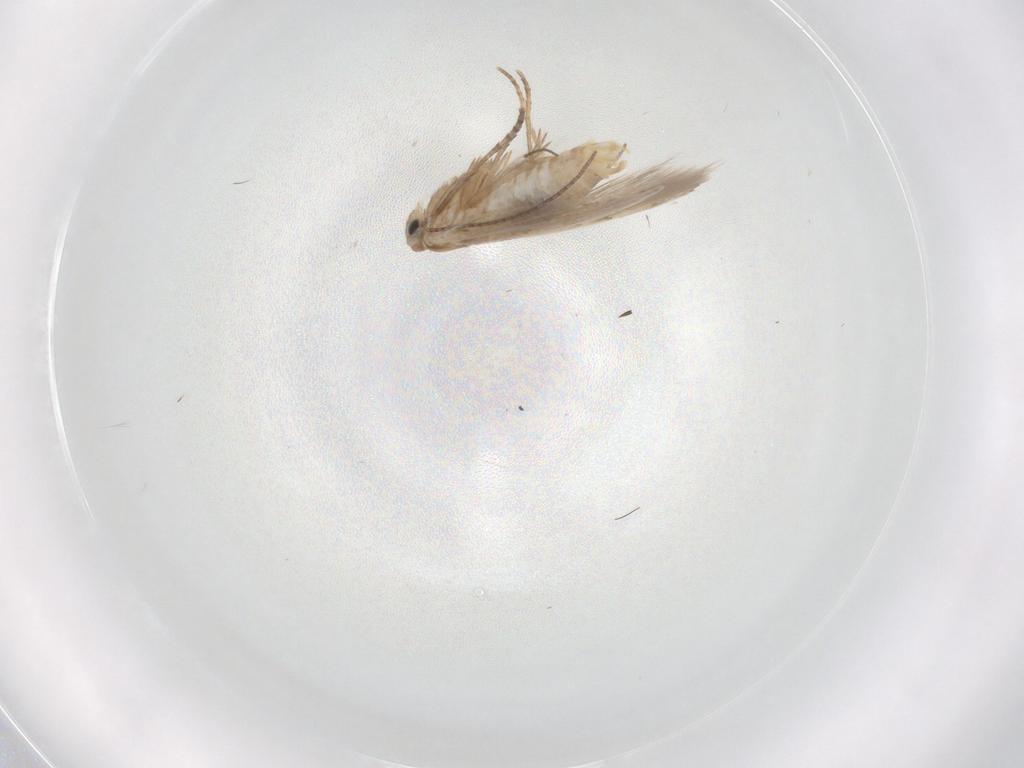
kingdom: Animalia
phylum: Arthropoda
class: Insecta
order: Lepidoptera
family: Bucculatricidae
